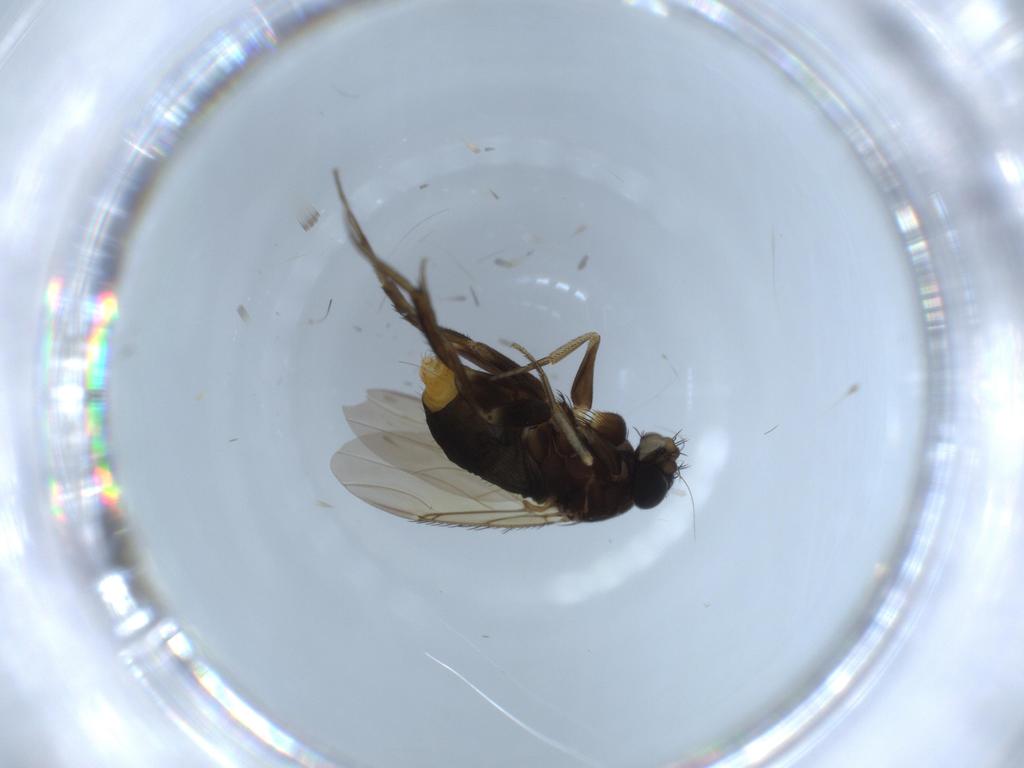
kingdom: Animalia
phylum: Arthropoda
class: Insecta
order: Diptera
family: Phoridae
